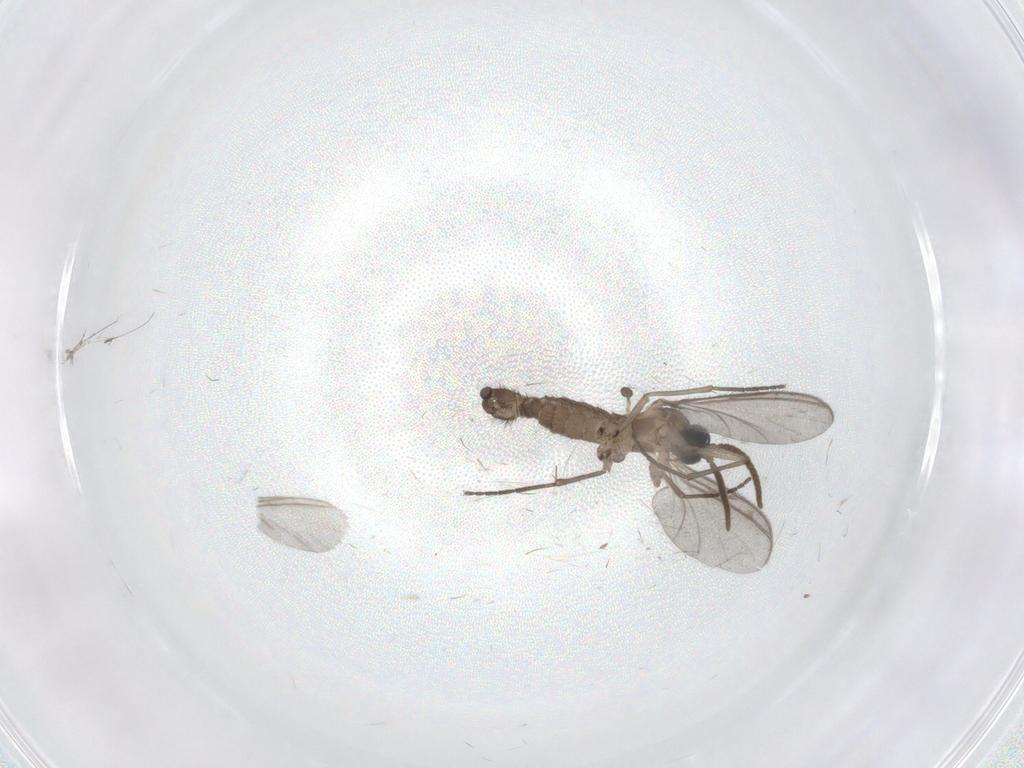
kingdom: Animalia
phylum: Arthropoda
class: Insecta
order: Diptera
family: Sciaridae
